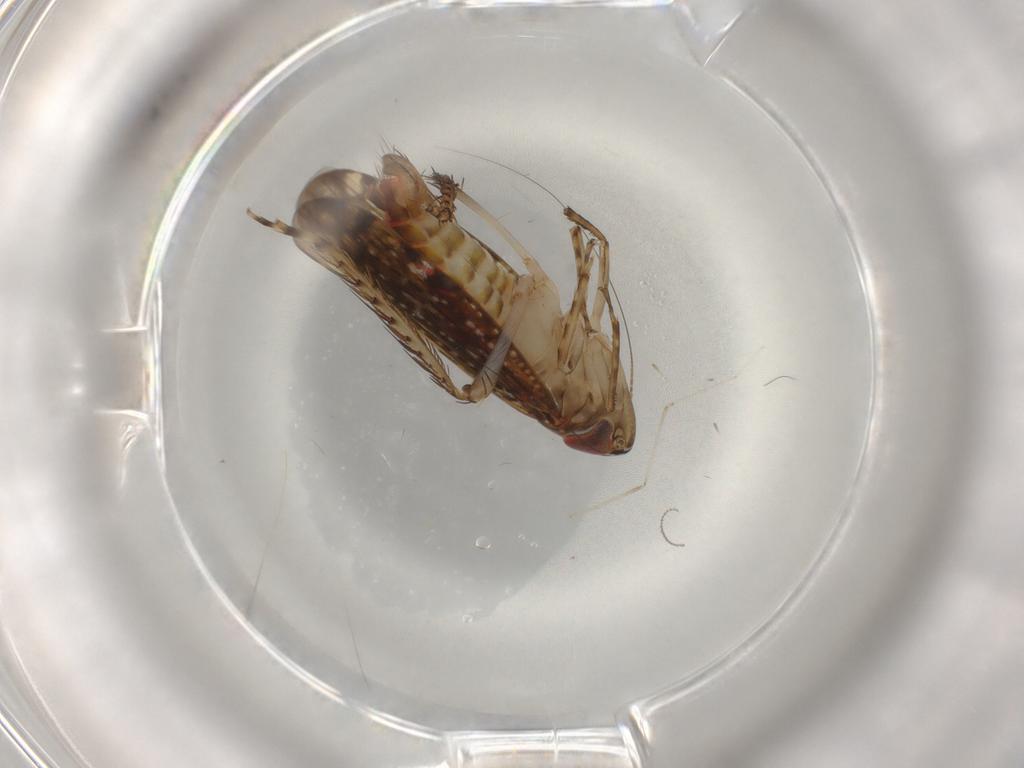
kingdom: Animalia
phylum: Arthropoda
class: Insecta
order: Hemiptera
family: Cicadellidae
